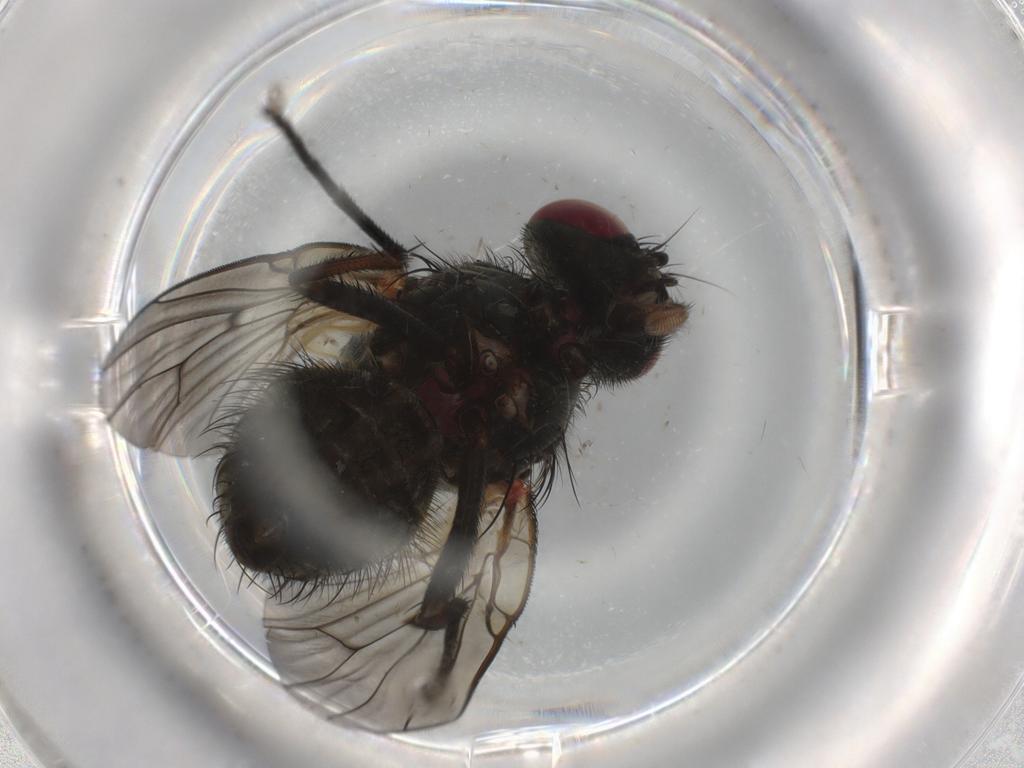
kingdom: Animalia
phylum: Arthropoda
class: Insecta
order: Diptera
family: Muscidae
